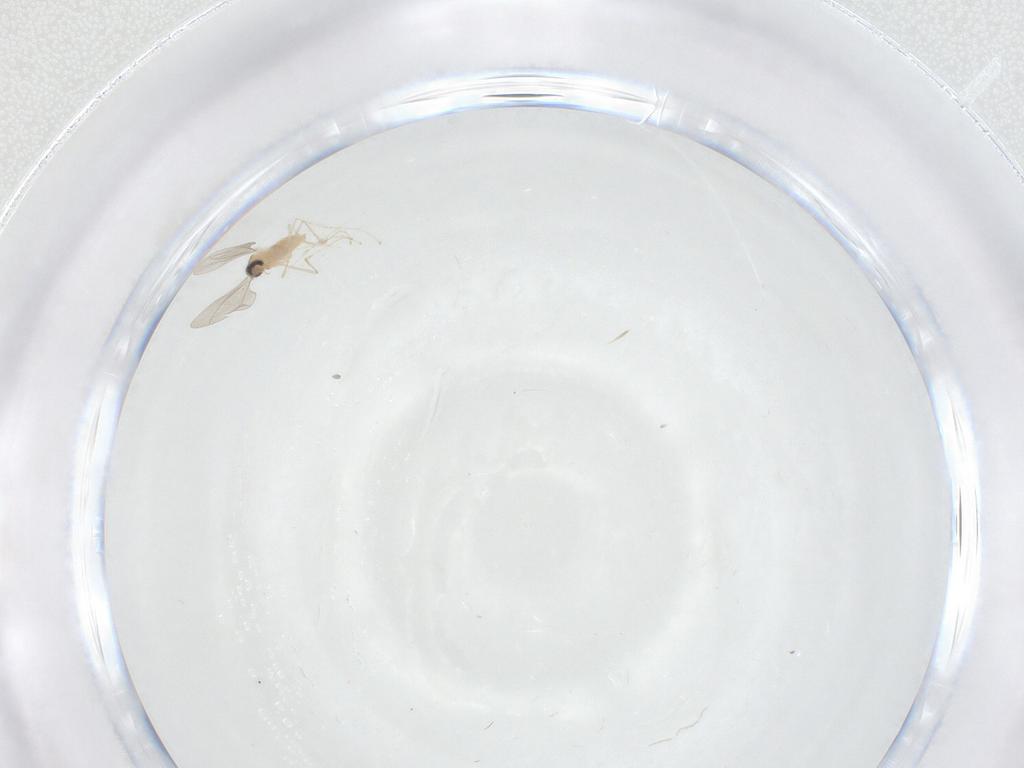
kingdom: Animalia
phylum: Arthropoda
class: Insecta
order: Diptera
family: Cecidomyiidae
